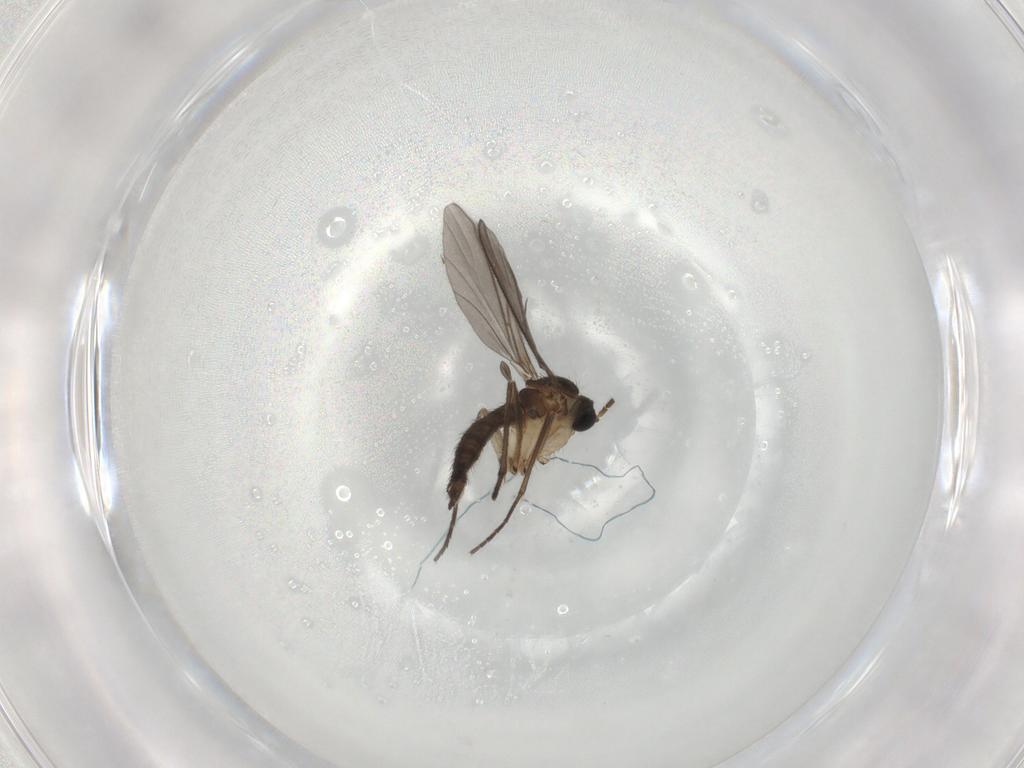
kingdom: Animalia
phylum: Arthropoda
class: Insecta
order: Diptera
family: Sciaridae
